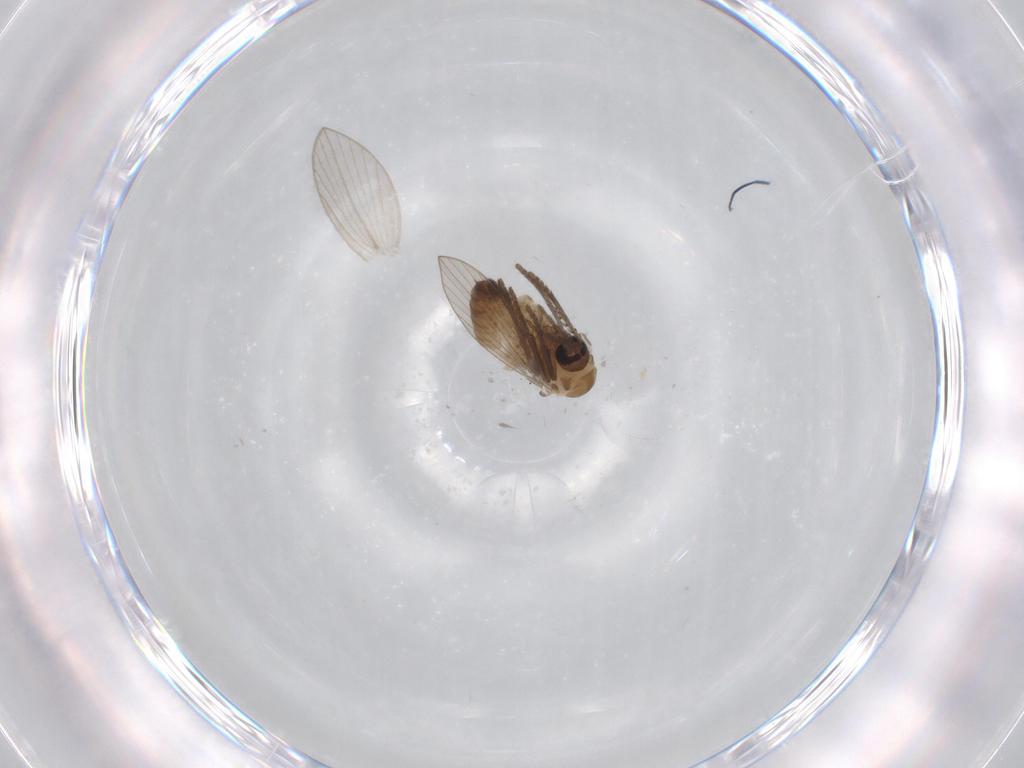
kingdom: Animalia
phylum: Arthropoda
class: Insecta
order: Diptera
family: Psychodidae
